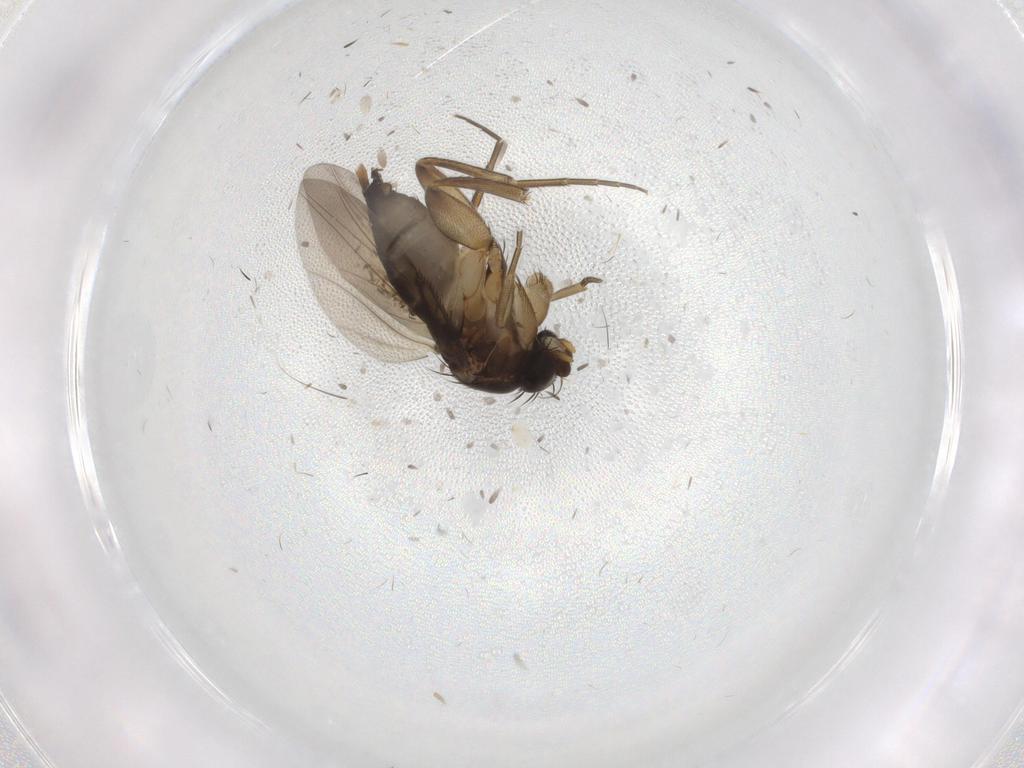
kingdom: Animalia
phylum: Arthropoda
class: Insecta
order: Diptera
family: Phoridae
